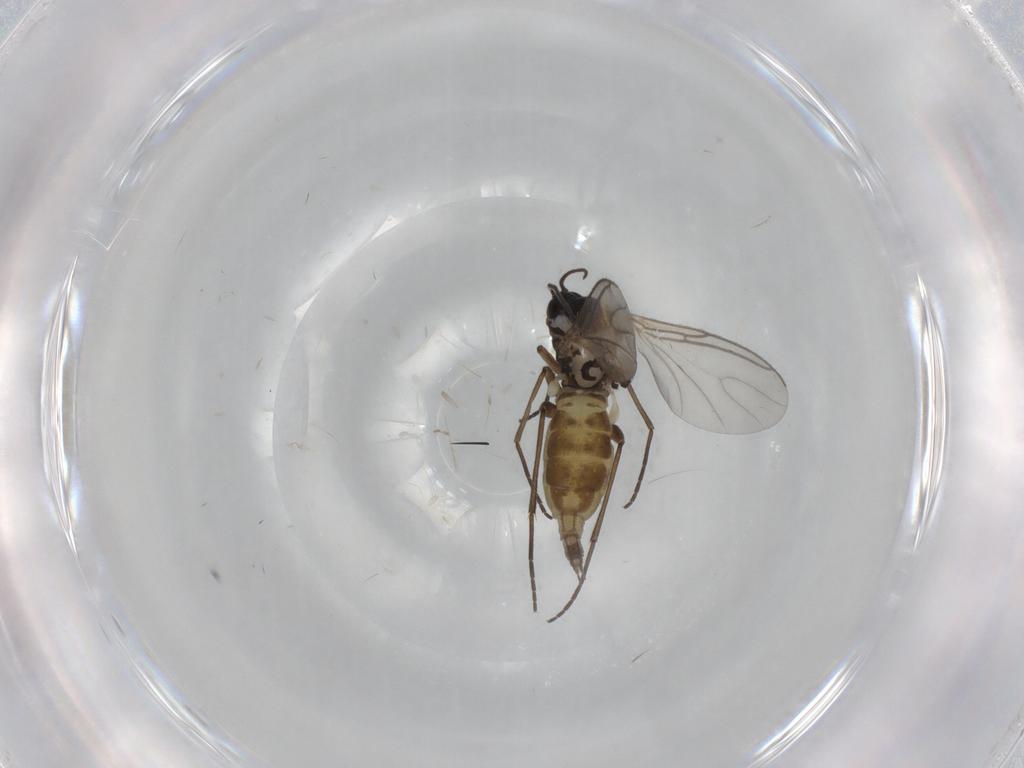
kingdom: Animalia
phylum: Arthropoda
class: Insecta
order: Diptera
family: Sciaridae
